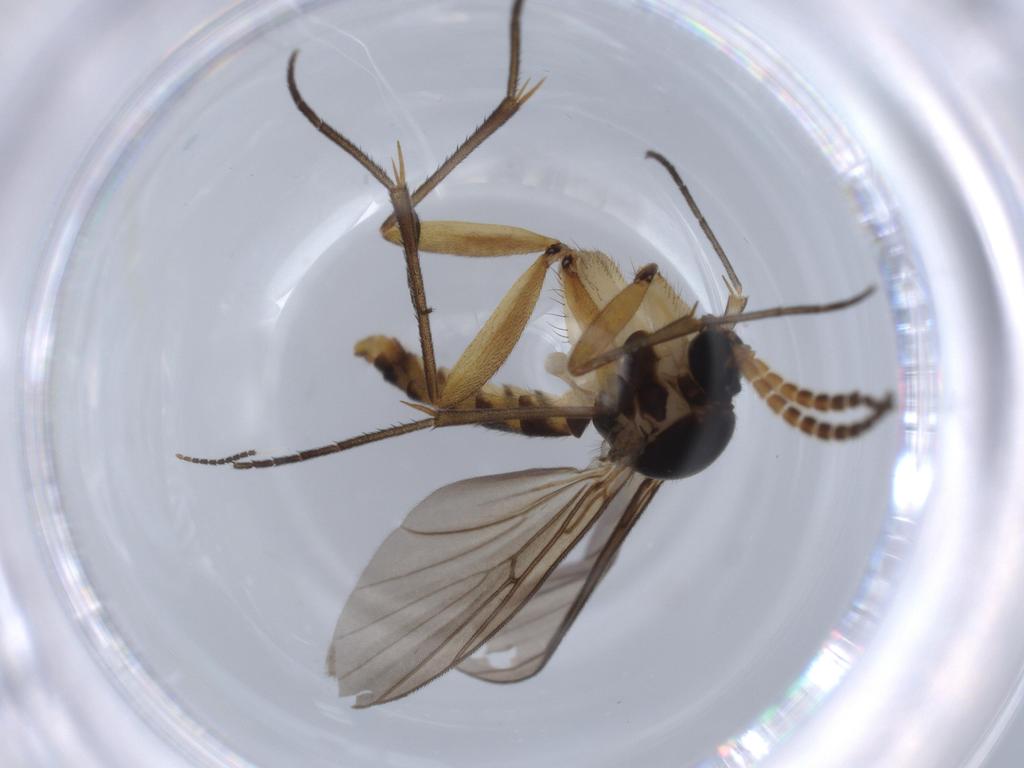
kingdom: Animalia
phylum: Arthropoda
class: Insecta
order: Diptera
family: Milichiidae
